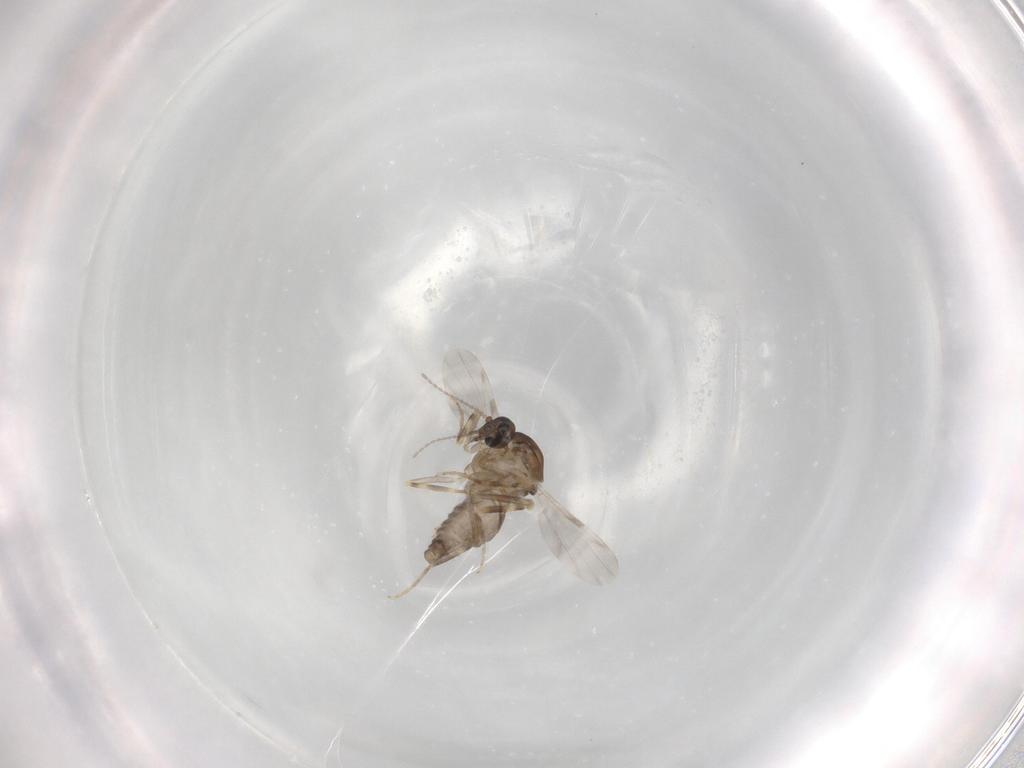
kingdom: Animalia
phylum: Arthropoda
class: Insecta
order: Diptera
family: Ceratopogonidae
